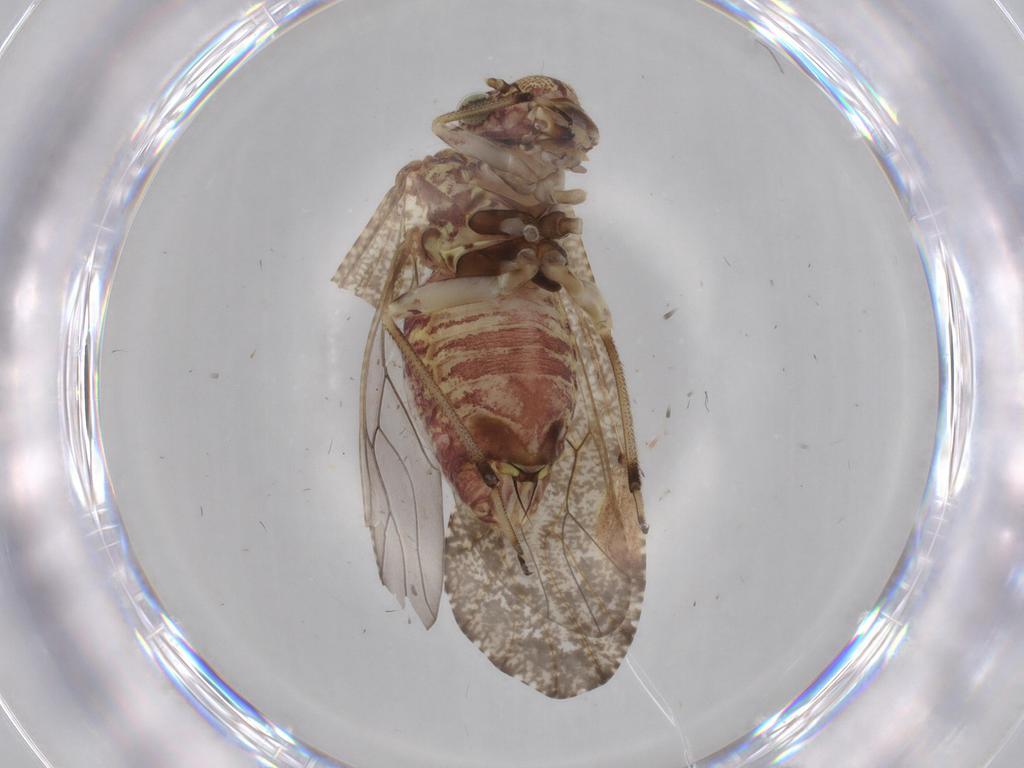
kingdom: Animalia
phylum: Arthropoda
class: Insecta
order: Psocodea
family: Myopsocidae
